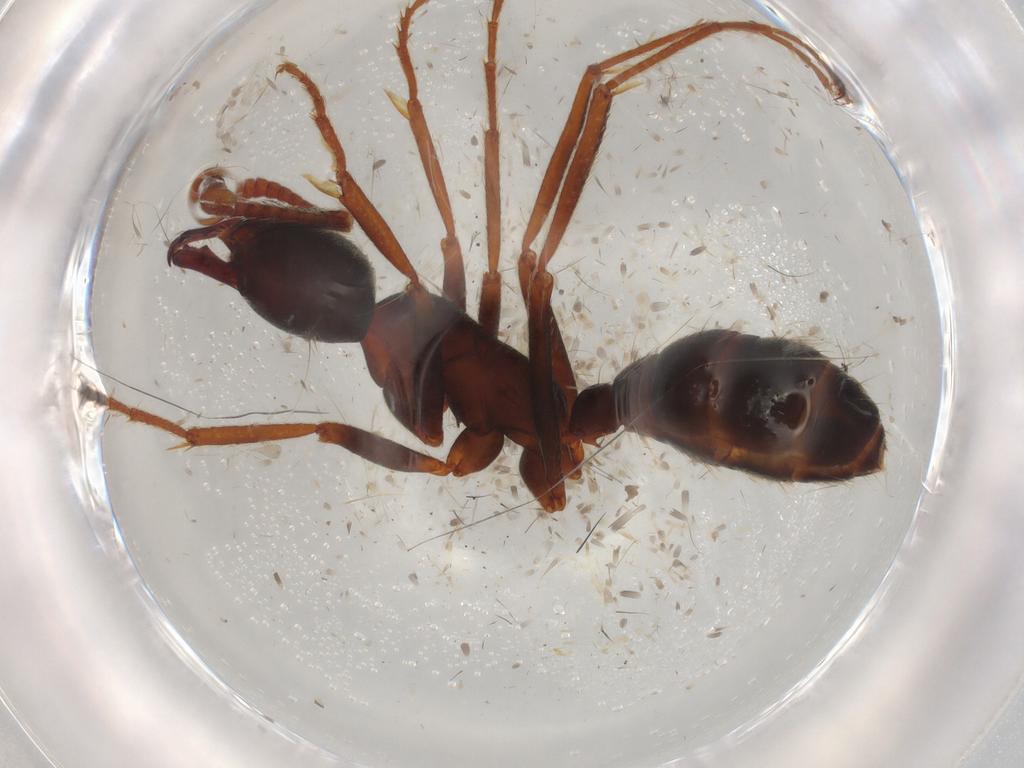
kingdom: Animalia
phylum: Arthropoda
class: Insecta
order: Hymenoptera
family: Formicidae
